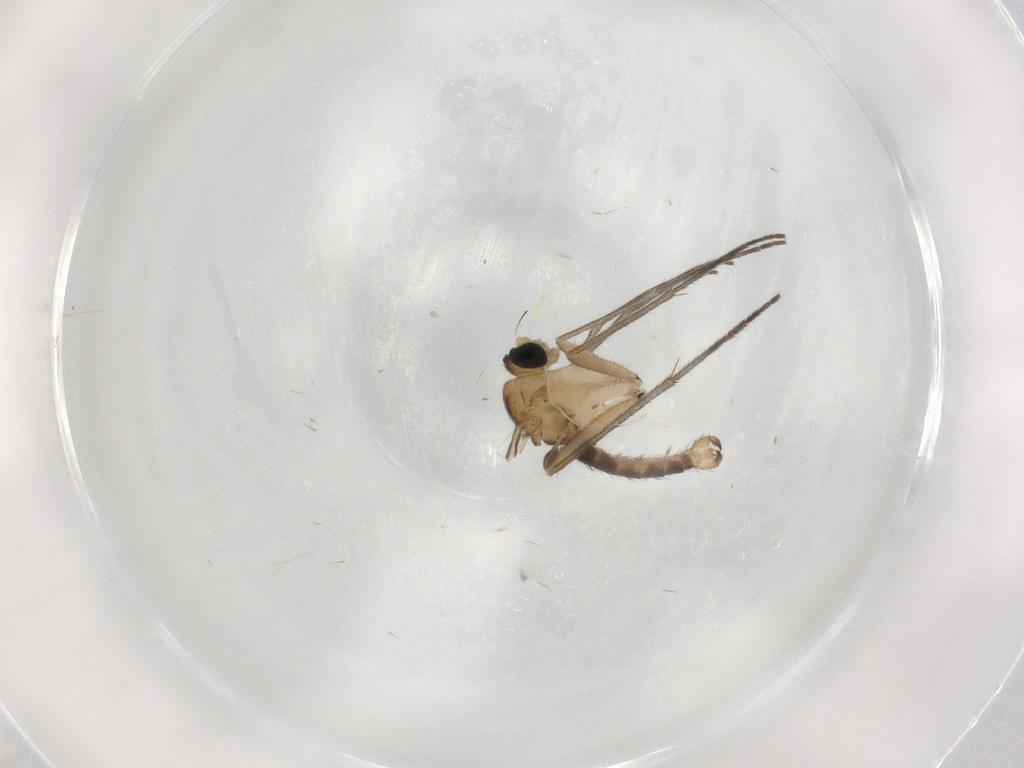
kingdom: Animalia
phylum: Arthropoda
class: Insecta
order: Diptera
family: Sciaridae
